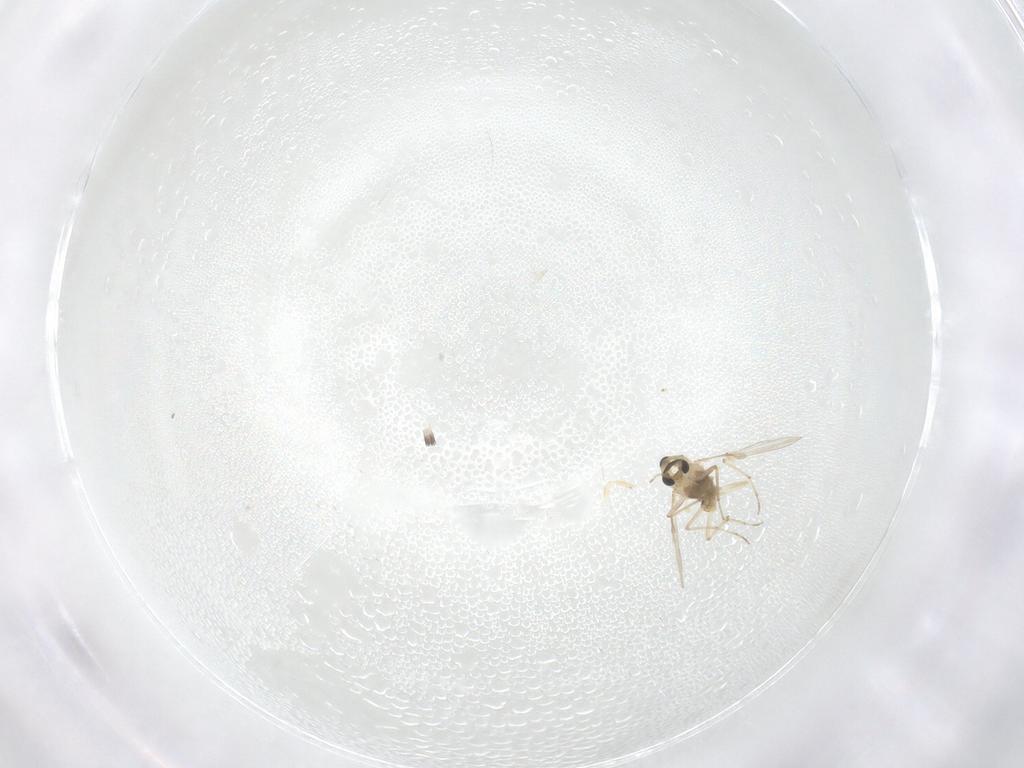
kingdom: Animalia
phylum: Arthropoda
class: Insecta
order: Diptera
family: Chironomidae
